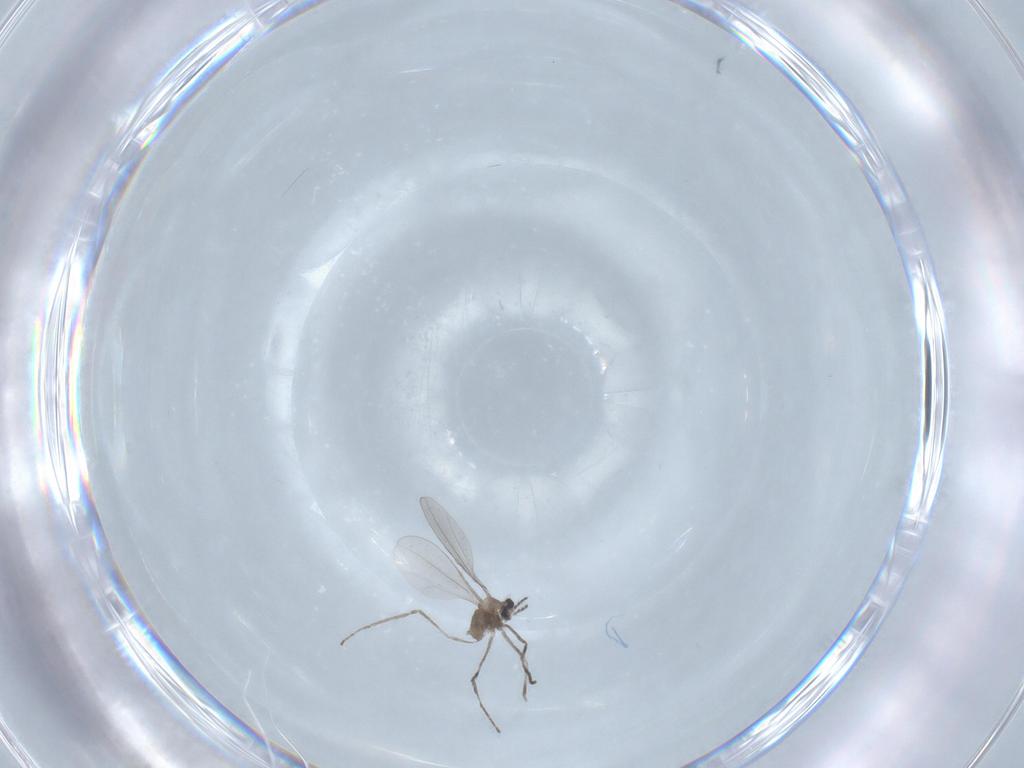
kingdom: Animalia
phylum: Arthropoda
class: Insecta
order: Diptera
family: Cecidomyiidae
